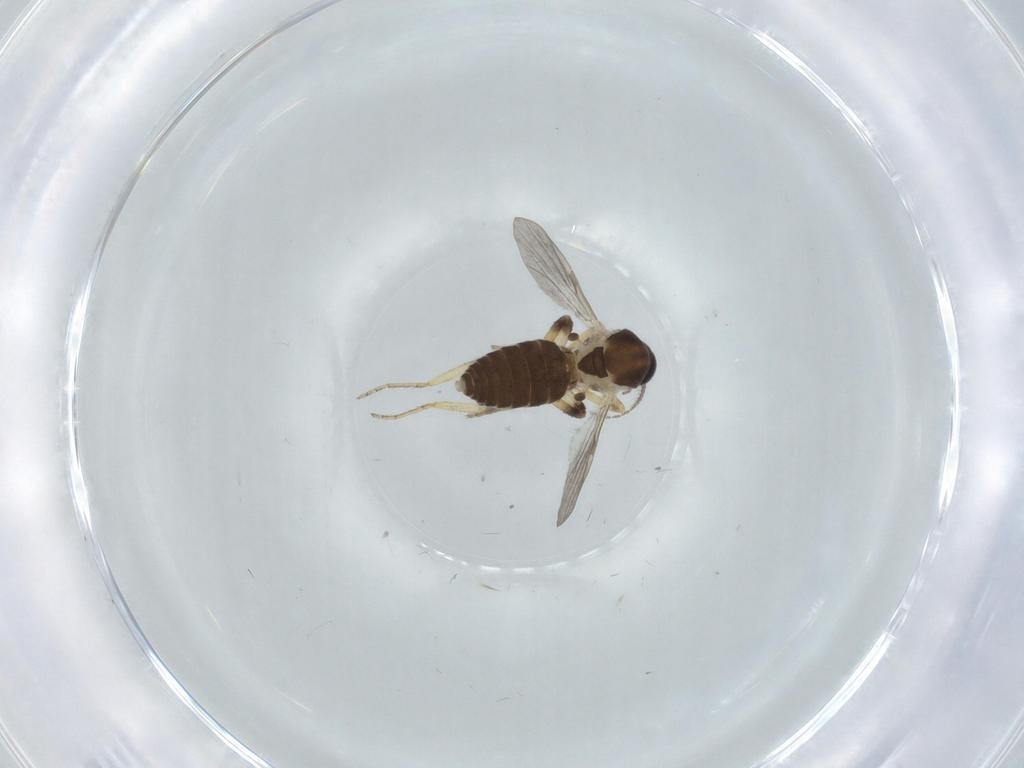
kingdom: Animalia
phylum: Arthropoda
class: Insecta
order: Diptera
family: Ceratopogonidae
